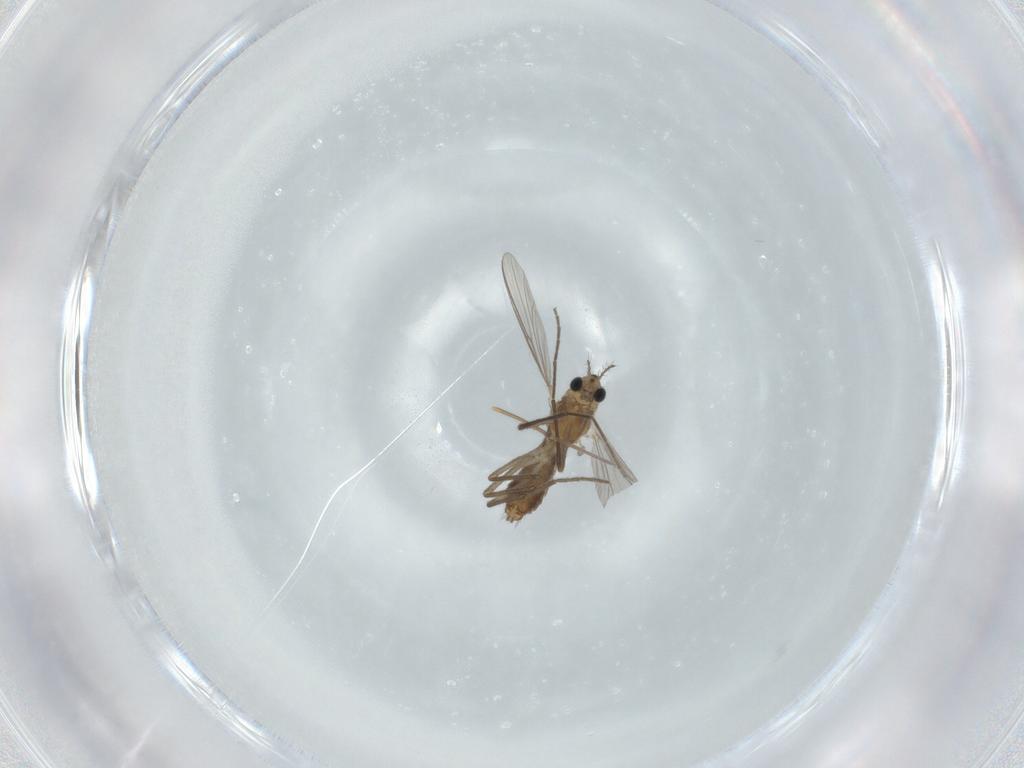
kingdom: Animalia
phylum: Arthropoda
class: Insecta
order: Diptera
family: Chironomidae
